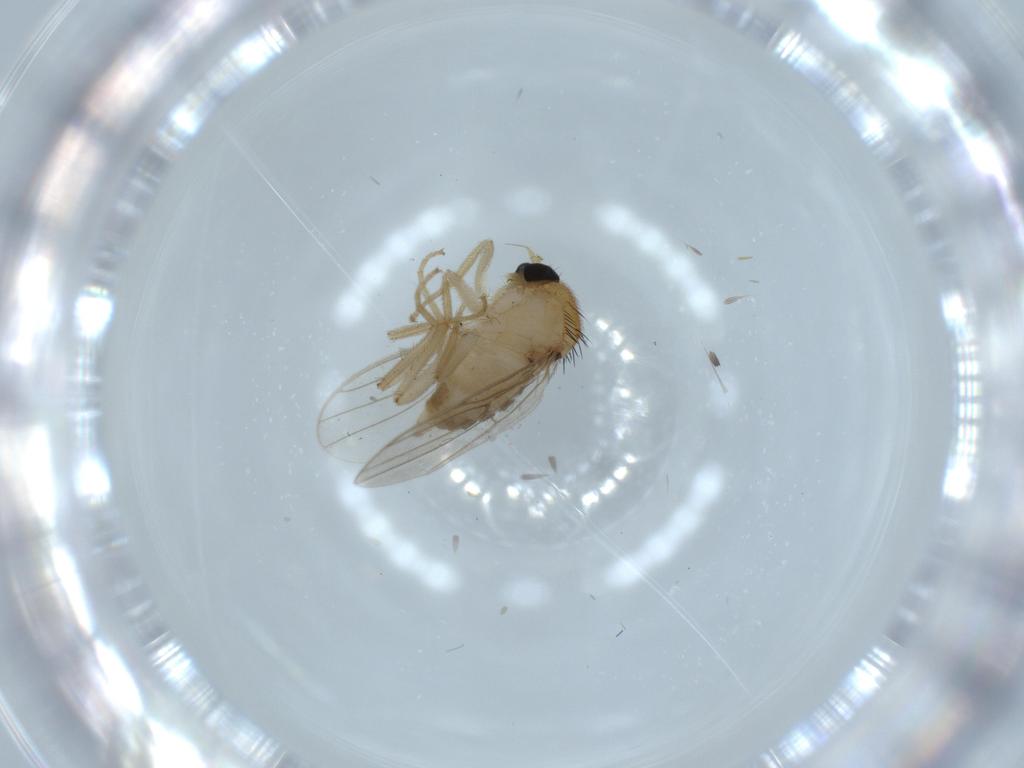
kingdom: Animalia
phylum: Arthropoda
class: Insecta
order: Diptera
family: Hybotidae
